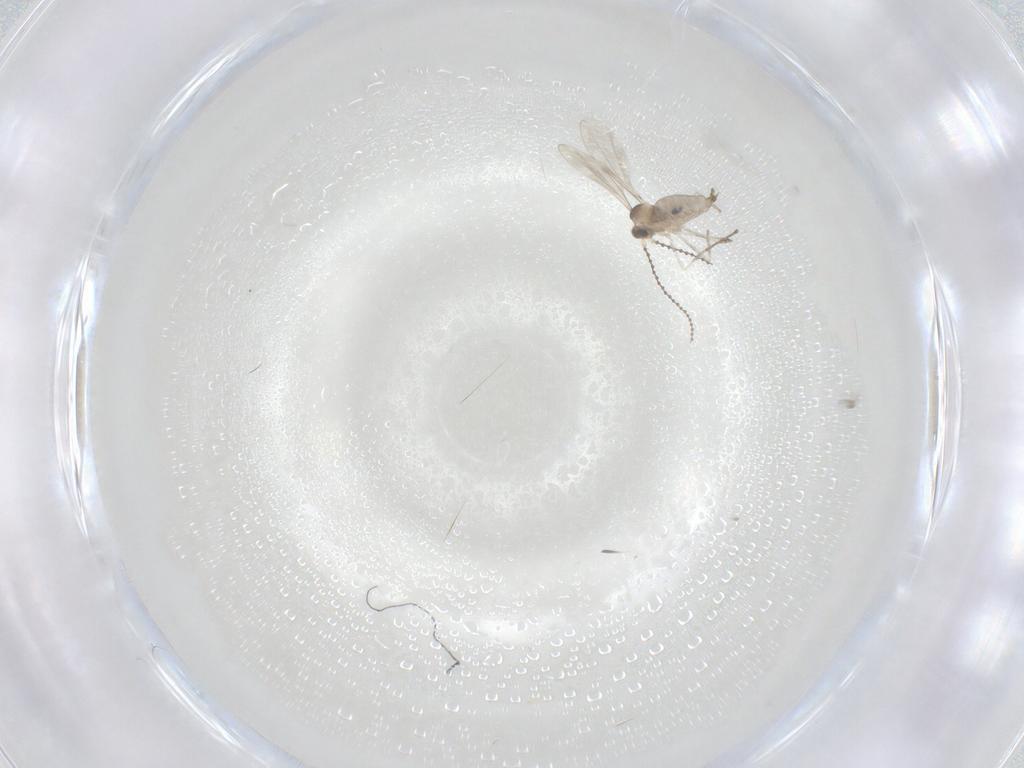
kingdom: Animalia
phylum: Arthropoda
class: Insecta
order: Diptera
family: Cecidomyiidae
